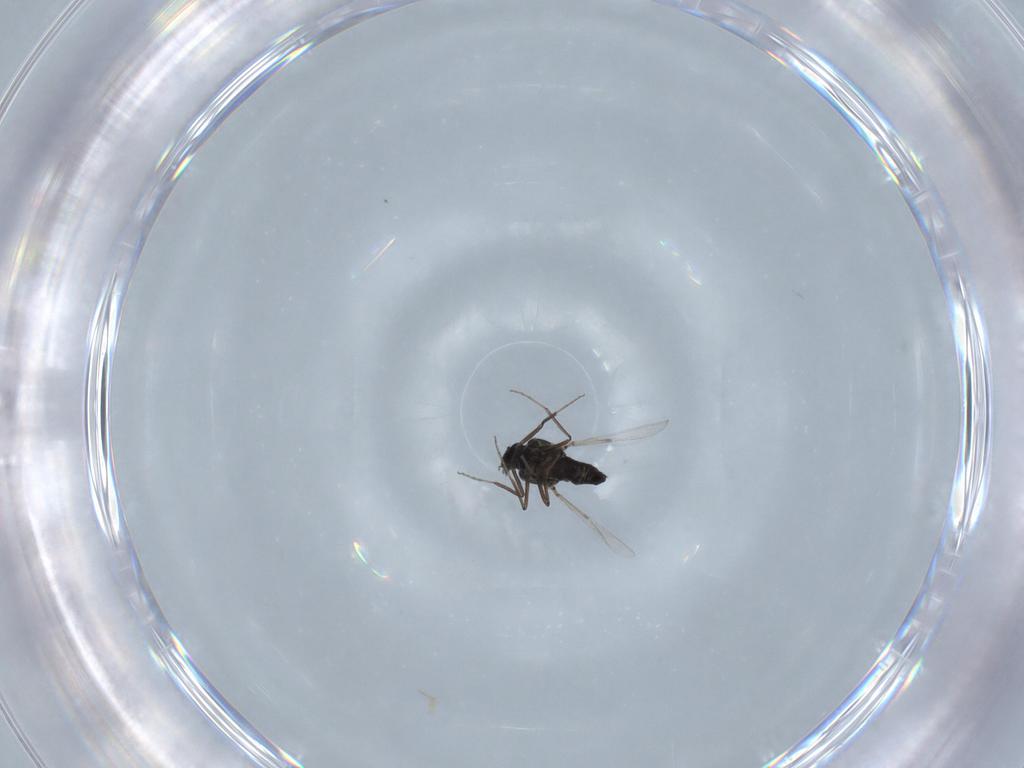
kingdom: Animalia
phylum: Arthropoda
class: Insecta
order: Diptera
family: Ceratopogonidae
